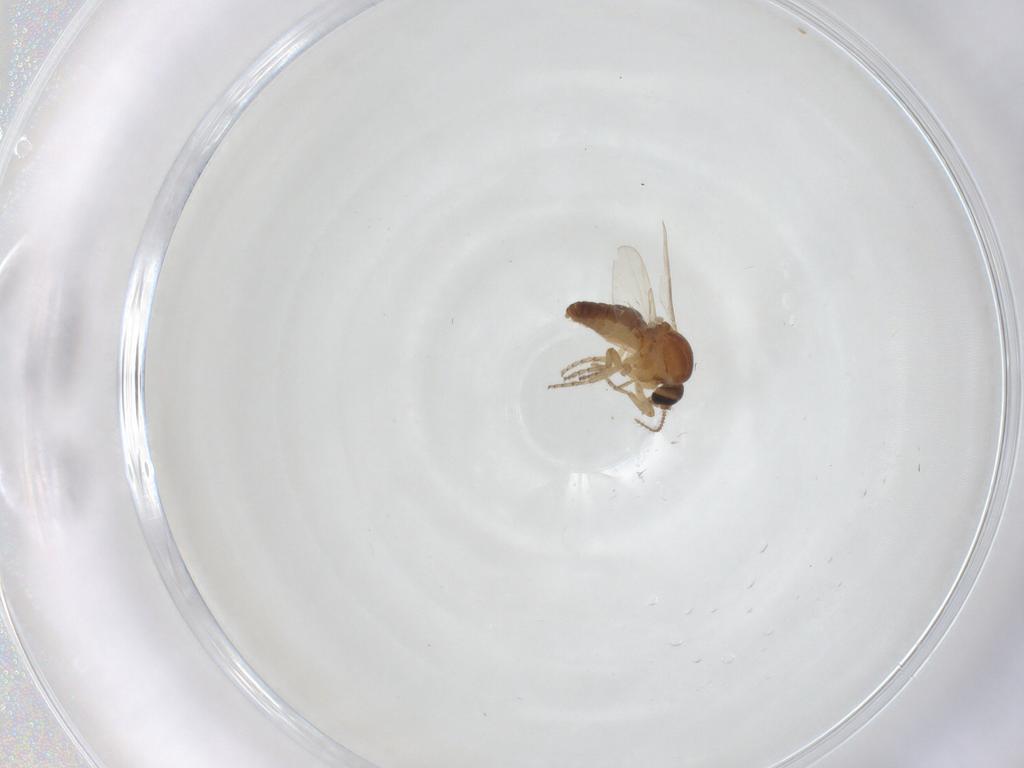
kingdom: Animalia
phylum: Arthropoda
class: Insecta
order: Diptera
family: Ceratopogonidae
